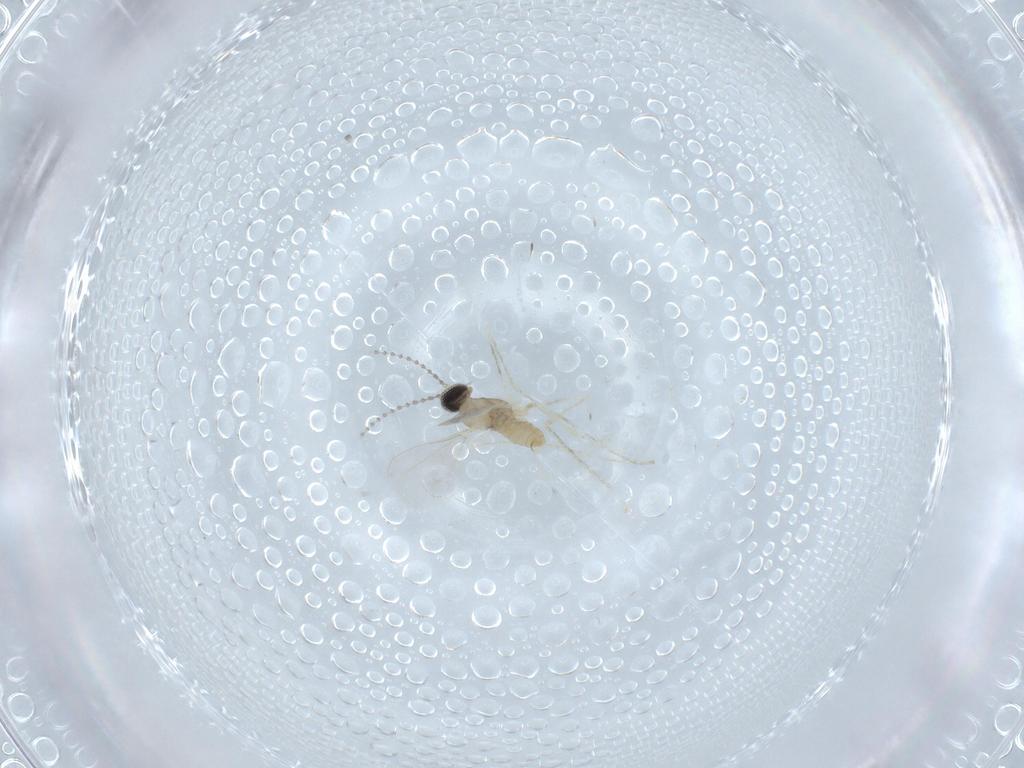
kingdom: Animalia
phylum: Arthropoda
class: Insecta
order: Diptera
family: Cecidomyiidae
